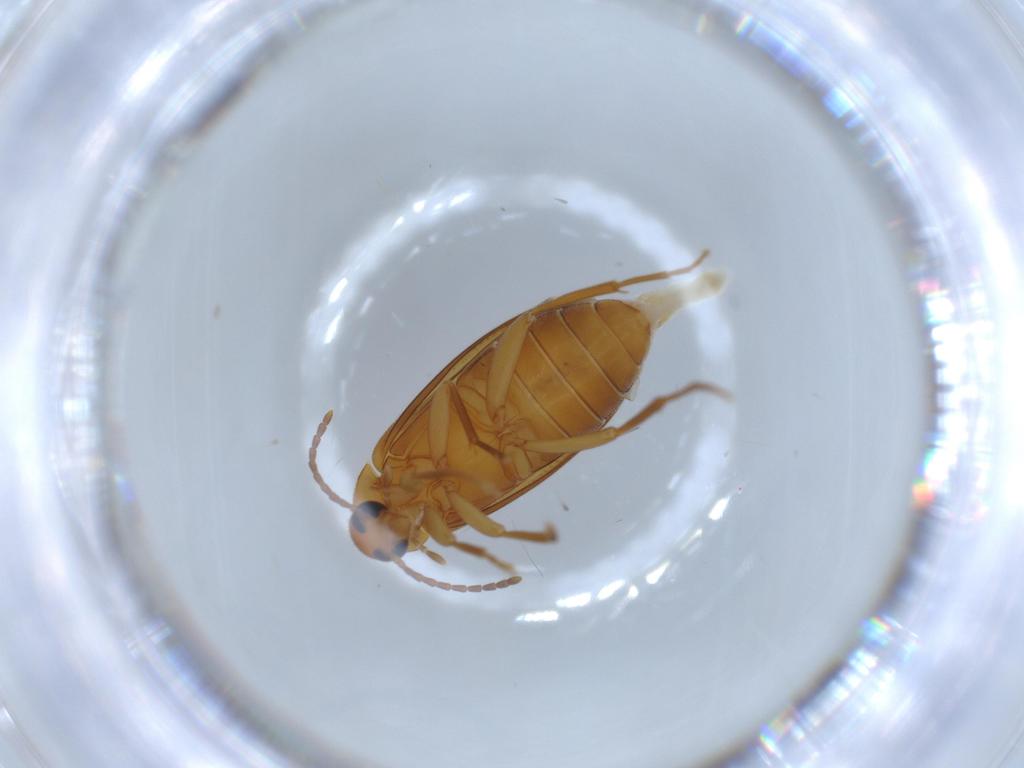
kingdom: Animalia
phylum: Arthropoda
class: Insecta
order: Coleoptera
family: Scraptiidae
